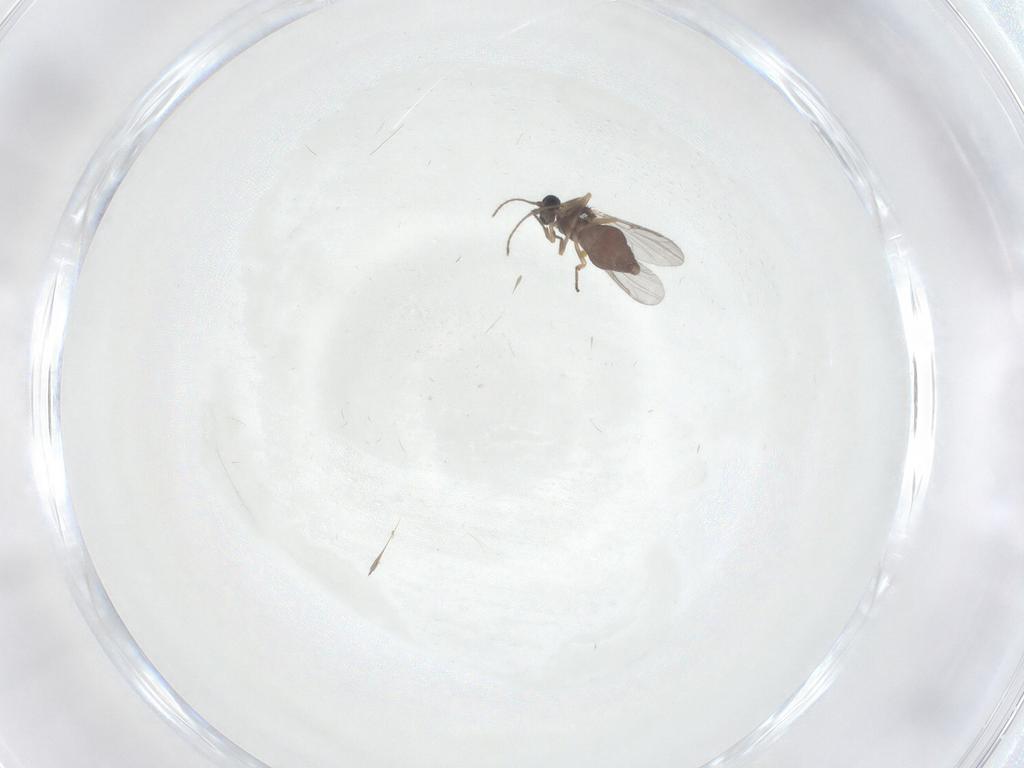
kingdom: Animalia
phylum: Arthropoda
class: Insecta
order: Diptera
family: Ceratopogonidae
